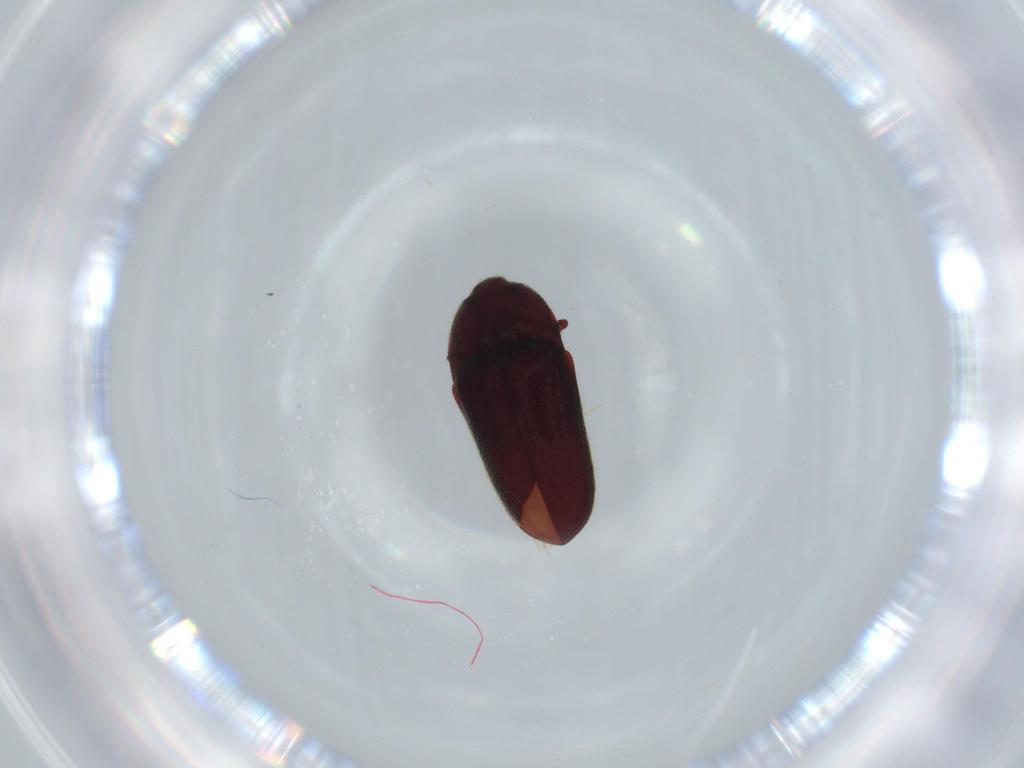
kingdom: Animalia
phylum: Arthropoda
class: Insecta
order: Coleoptera
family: Throscidae
